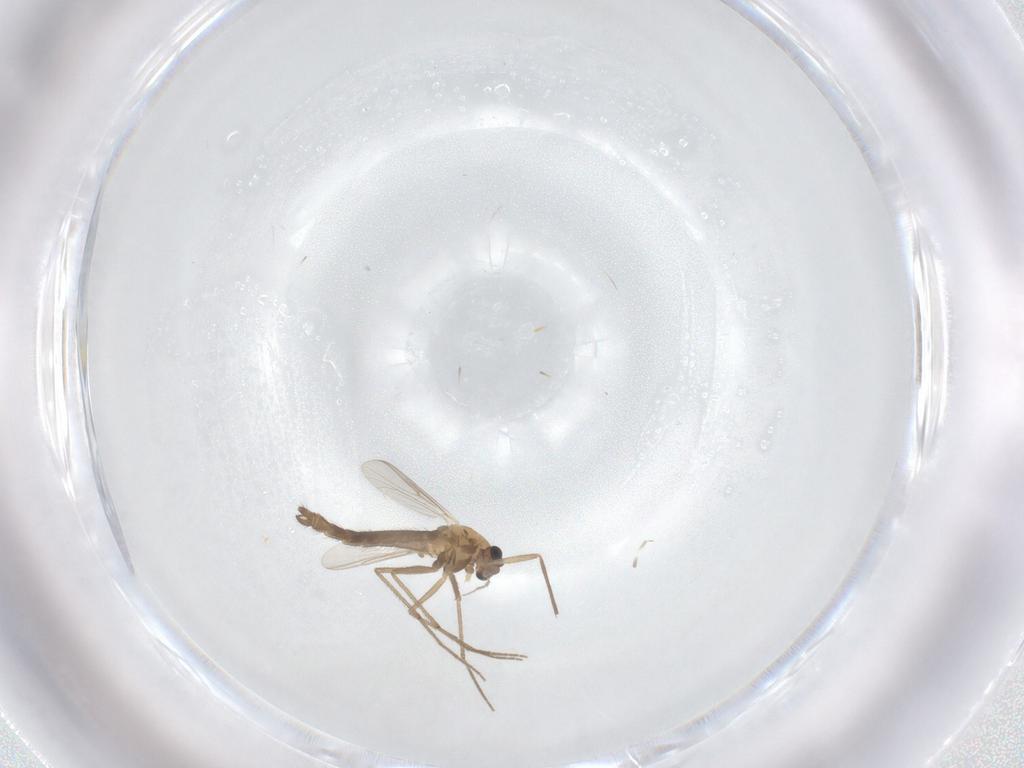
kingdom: Animalia
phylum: Arthropoda
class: Insecta
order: Diptera
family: Chironomidae
